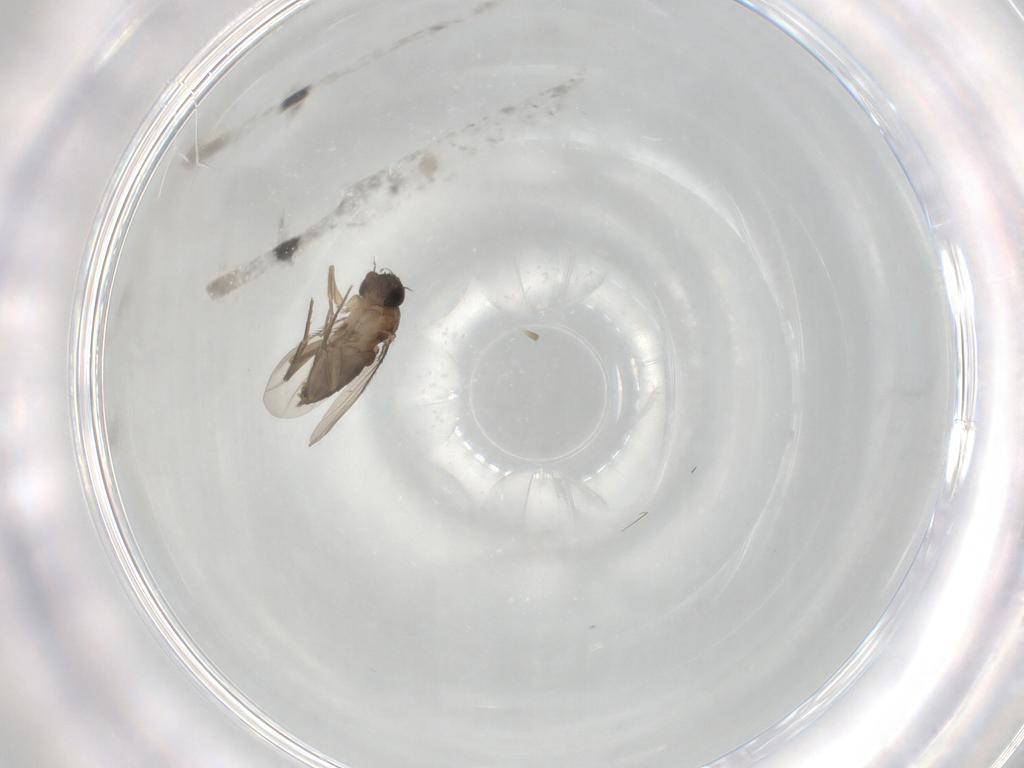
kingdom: Animalia
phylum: Arthropoda
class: Insecta
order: Diptera
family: Phoridae
